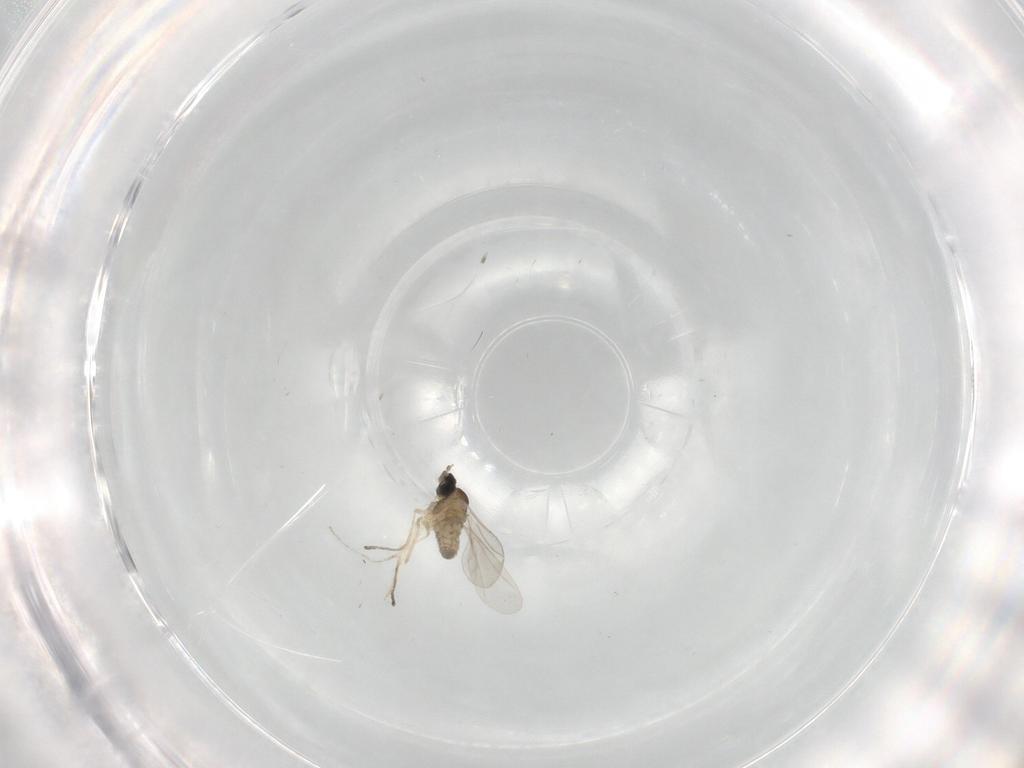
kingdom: Animalia
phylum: Arthropoda
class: Insecta
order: Diptera
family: Cecidomyiidae
